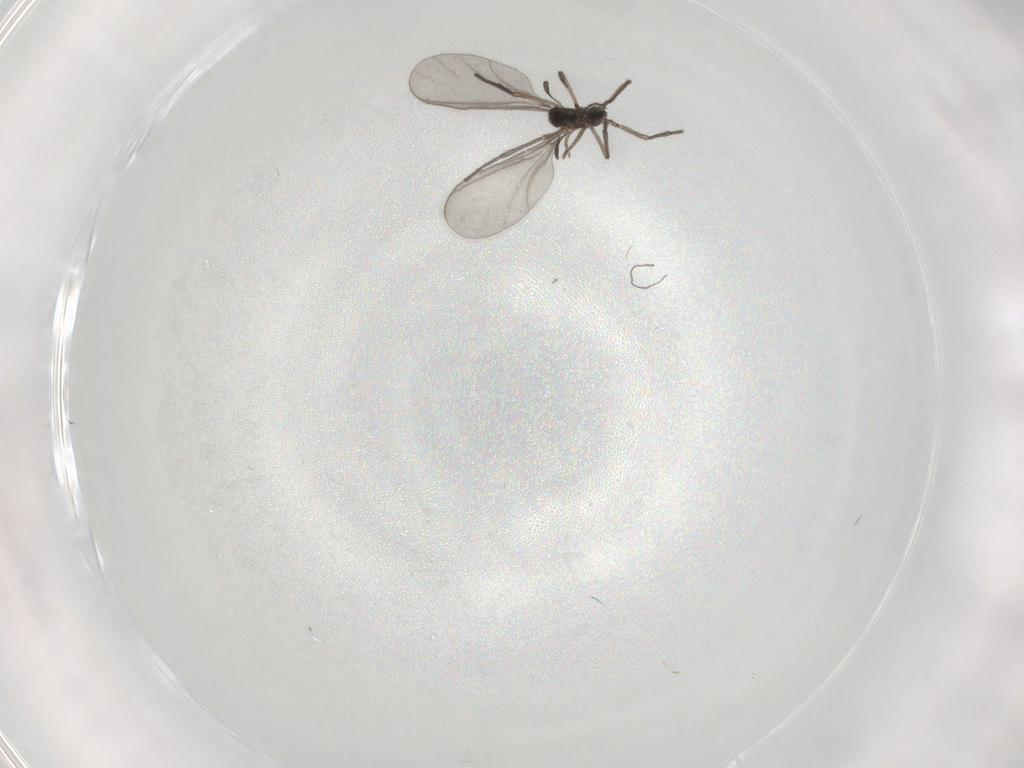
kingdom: Animalia
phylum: Arthropoda
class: Insecta
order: Diptera
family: Sciaridae
